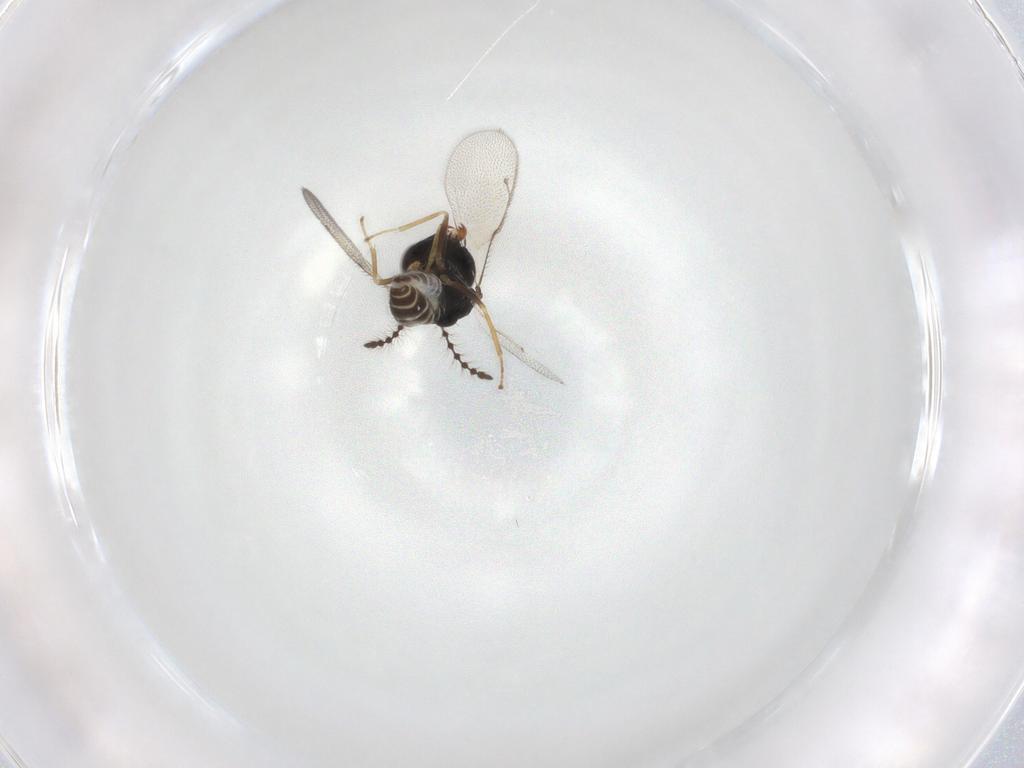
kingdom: Animalia
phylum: Arthropoda
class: Insecta
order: Hymenoptera
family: Pteromalidae
